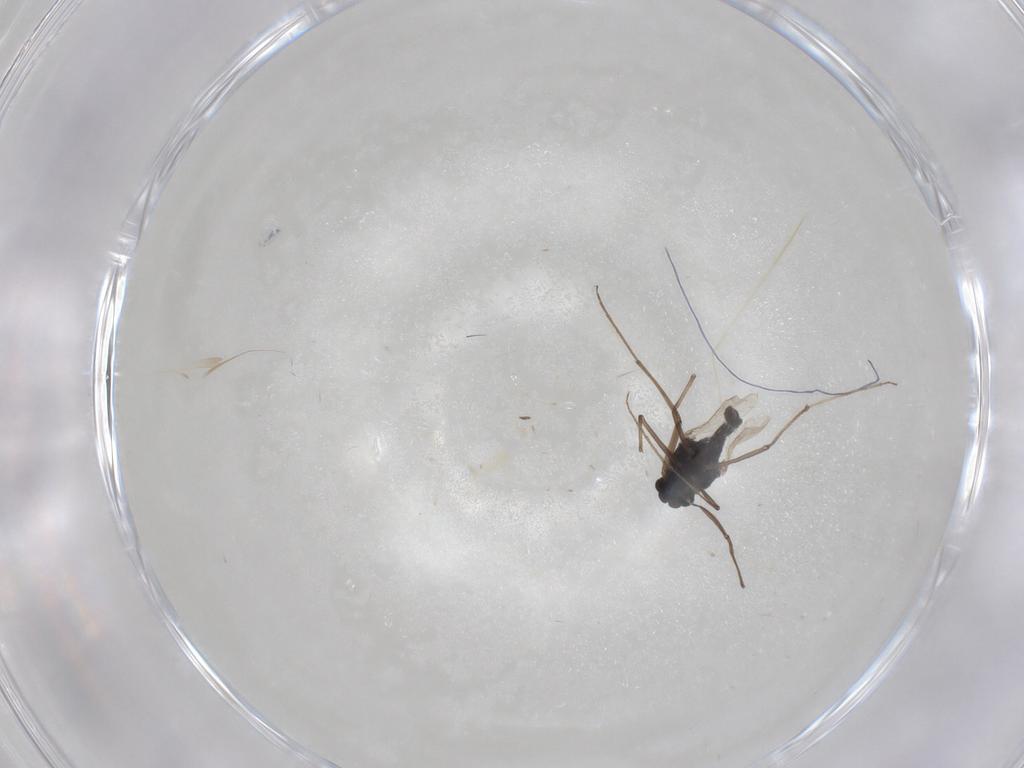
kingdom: Animalia
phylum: Arthropoda
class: Insecta
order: Diptera
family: Chironomidae
